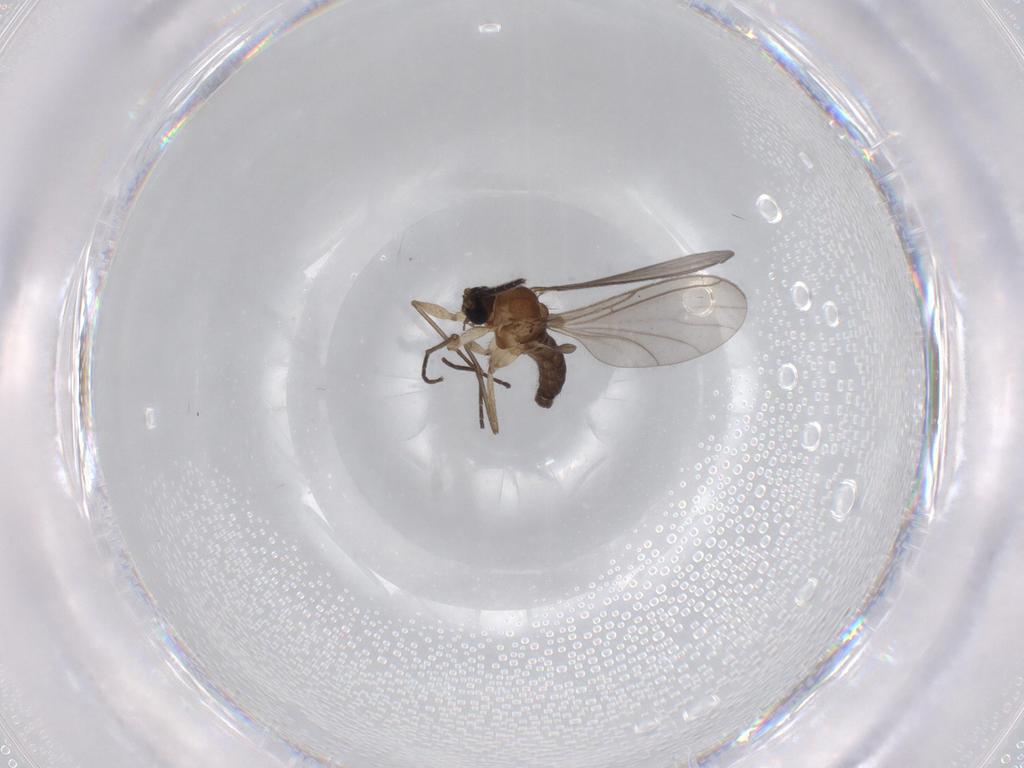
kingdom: Animalia
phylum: Arthropoda
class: Insecta
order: Diptera
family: Sciaridae
